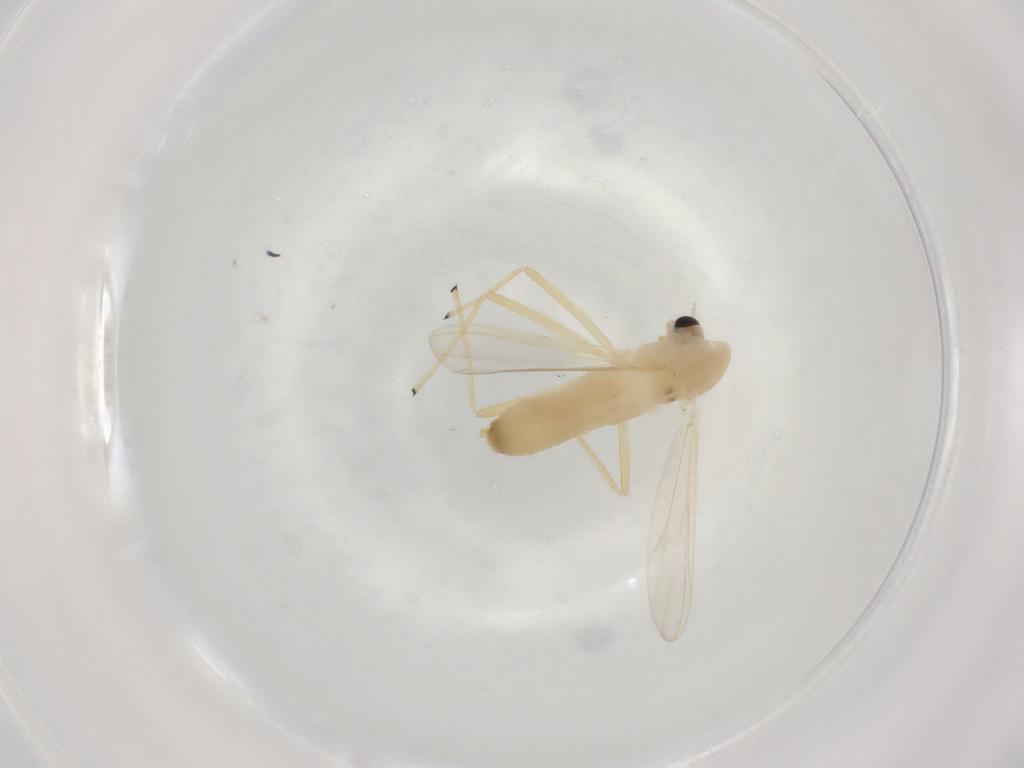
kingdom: Animalia
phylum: Arthropoda
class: Insecta
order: Diptera
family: Chironomidae
